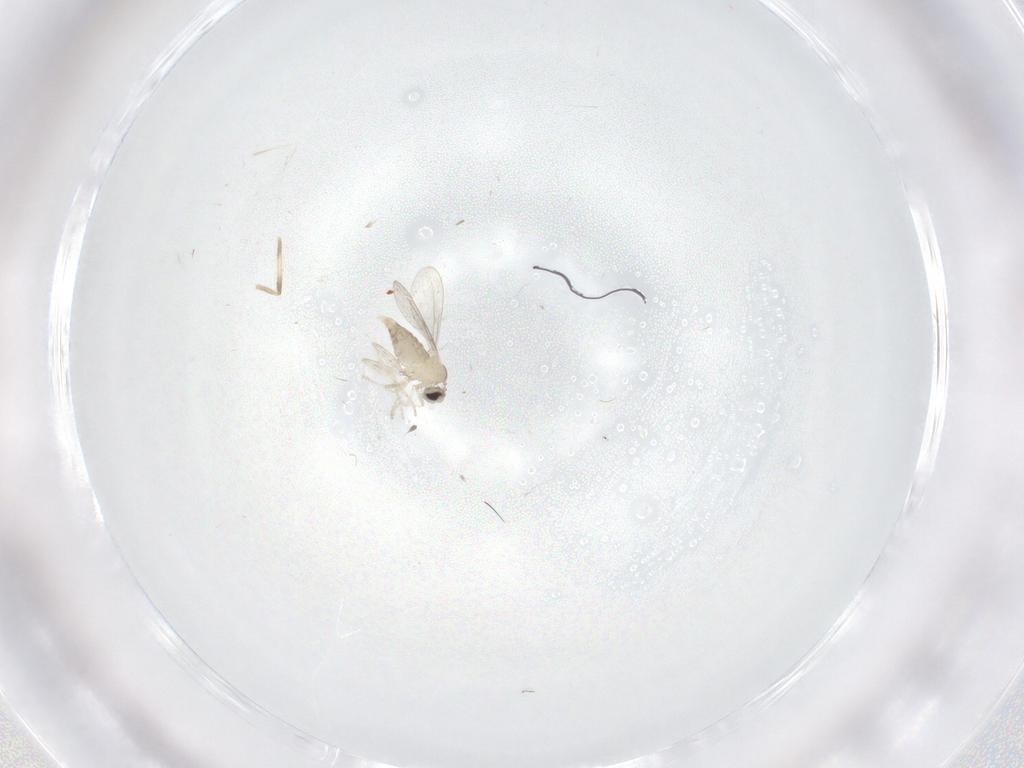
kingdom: Animalia
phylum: Arthropoda
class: Insecta
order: Diptera
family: Cecidomyiidae
